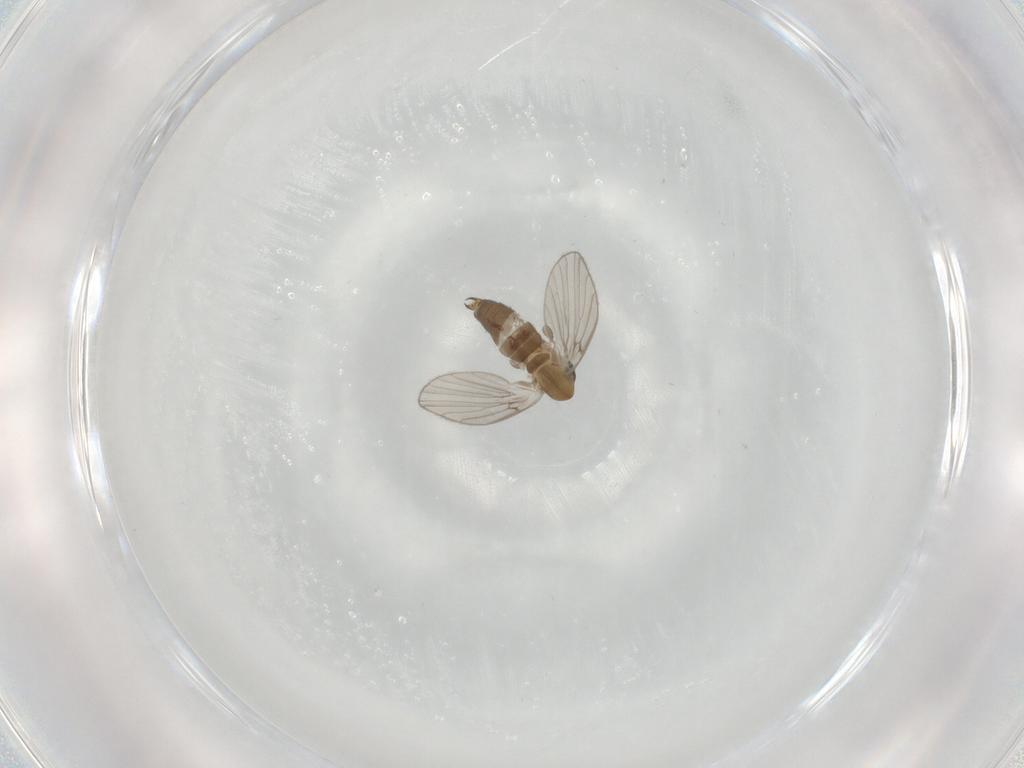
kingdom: Animalia
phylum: Arthropoda
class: Insecta
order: Diptera
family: Psychodidae
